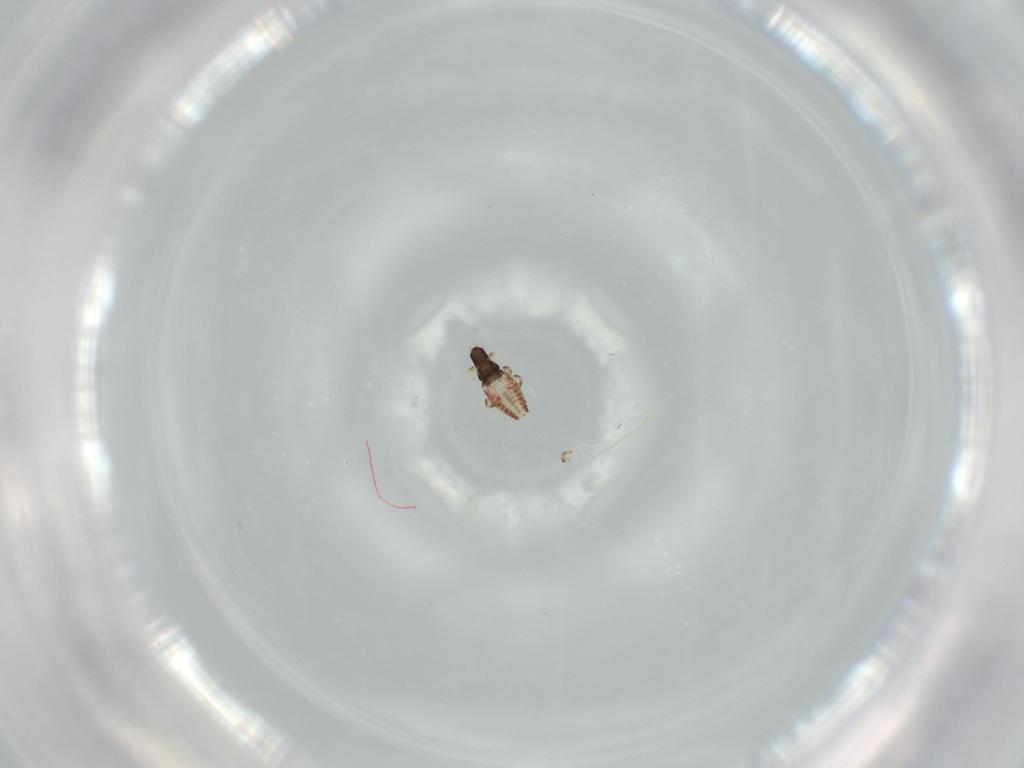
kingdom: Animalia
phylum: Arthropoda
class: Insecta
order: Thysanoptera
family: Phlaeothripidae
